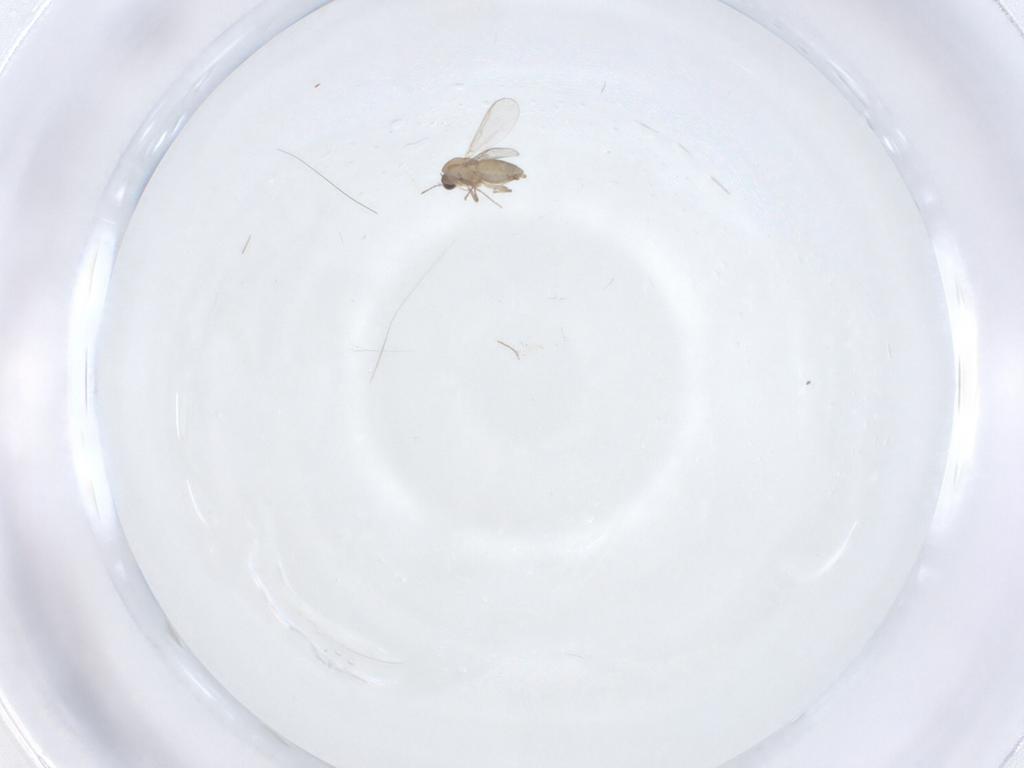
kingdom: Animalia
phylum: Arthropoda
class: Insecta
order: Diptera
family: Chironomidae
